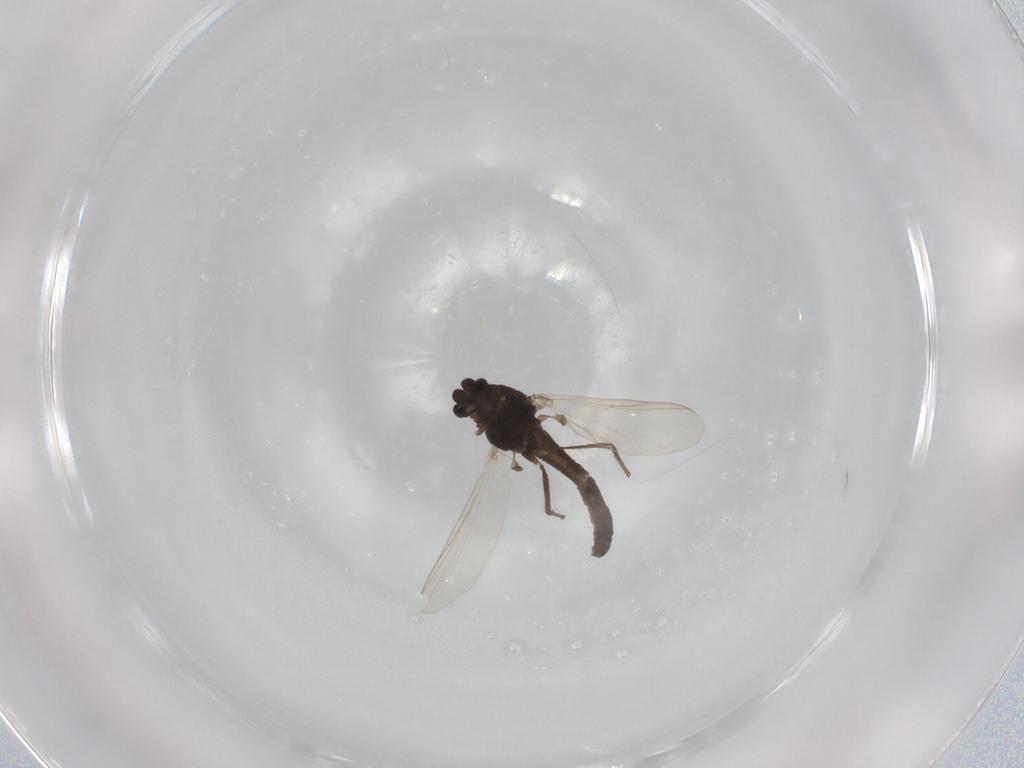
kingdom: Animalia
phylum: Arthropoda
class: Insecta
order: Diptera
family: Chironomidae
